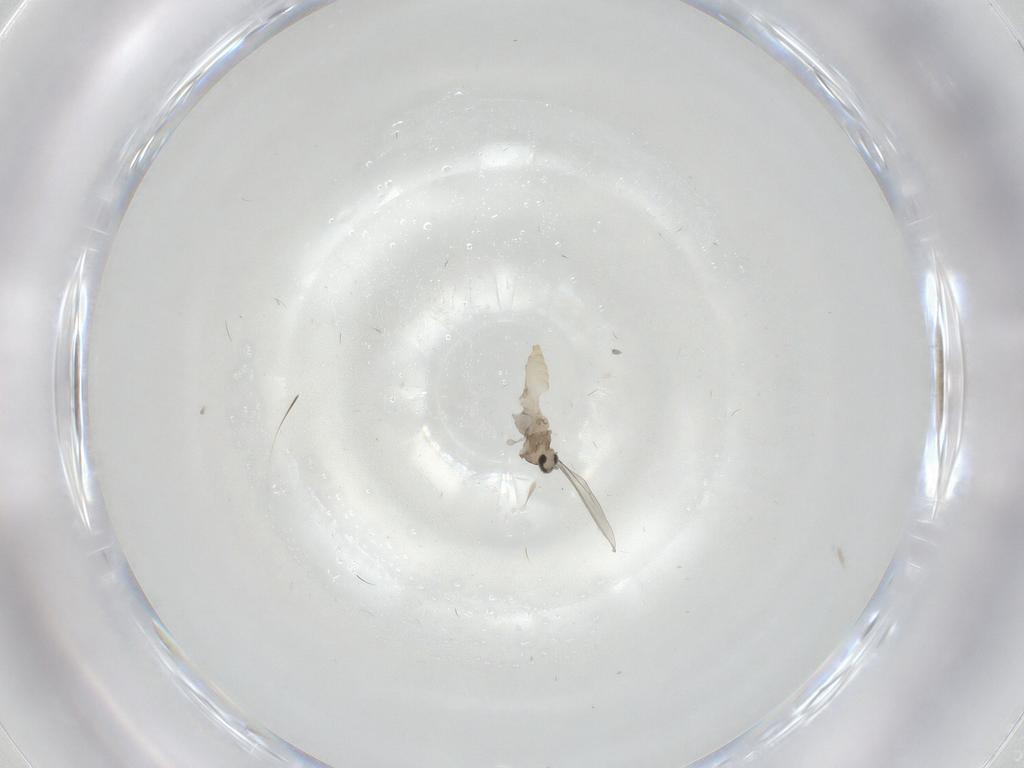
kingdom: Animalia
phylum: Arthropoda
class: Insecta
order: Diptera
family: Cecidomyiidae
